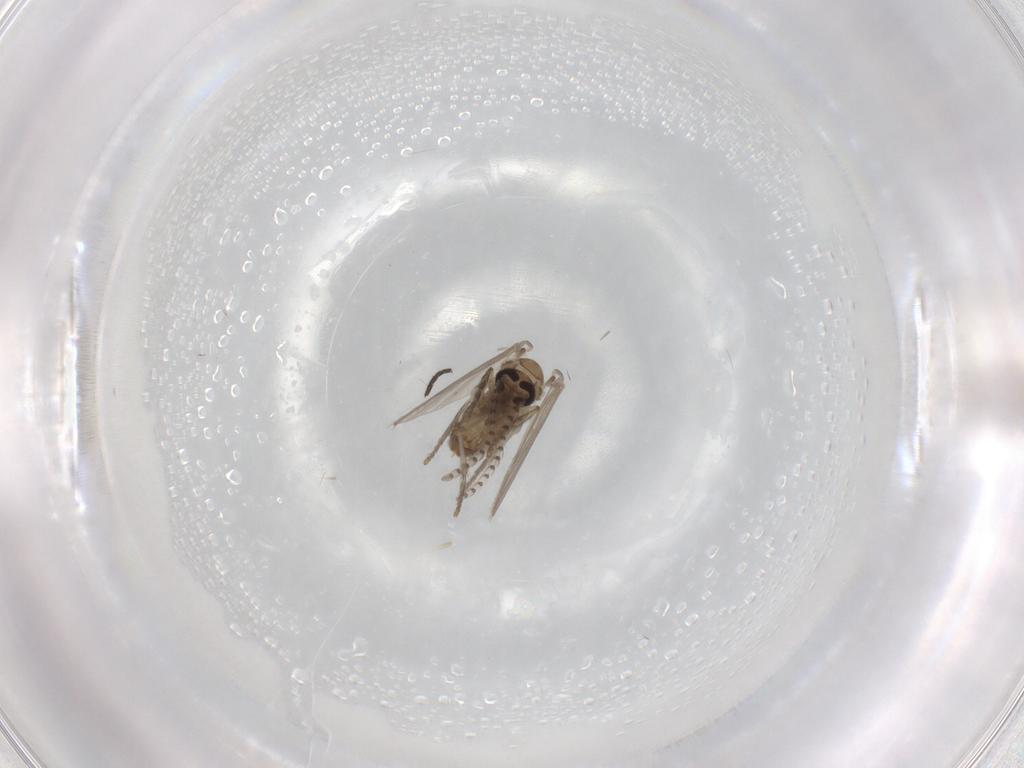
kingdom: Animalia
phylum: Arthropoda
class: Insecta
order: Diptera
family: Psychodidae
